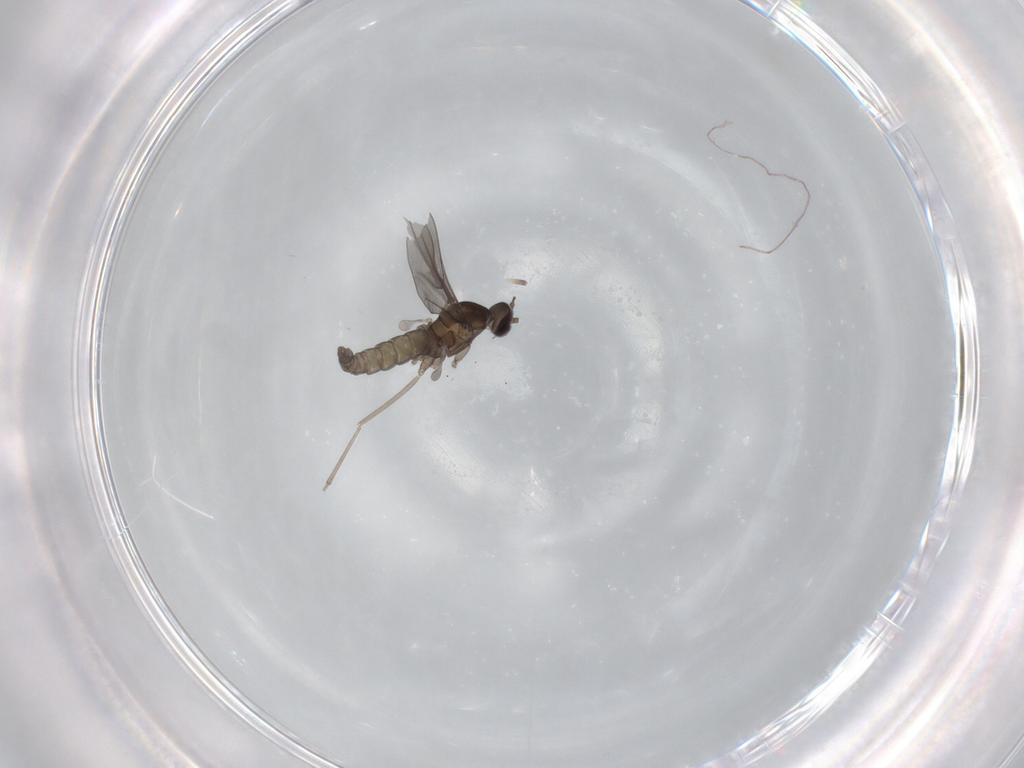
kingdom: Animalia
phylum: Arthropoda
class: Insecta
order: Diptera
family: Cecidomyiidae
